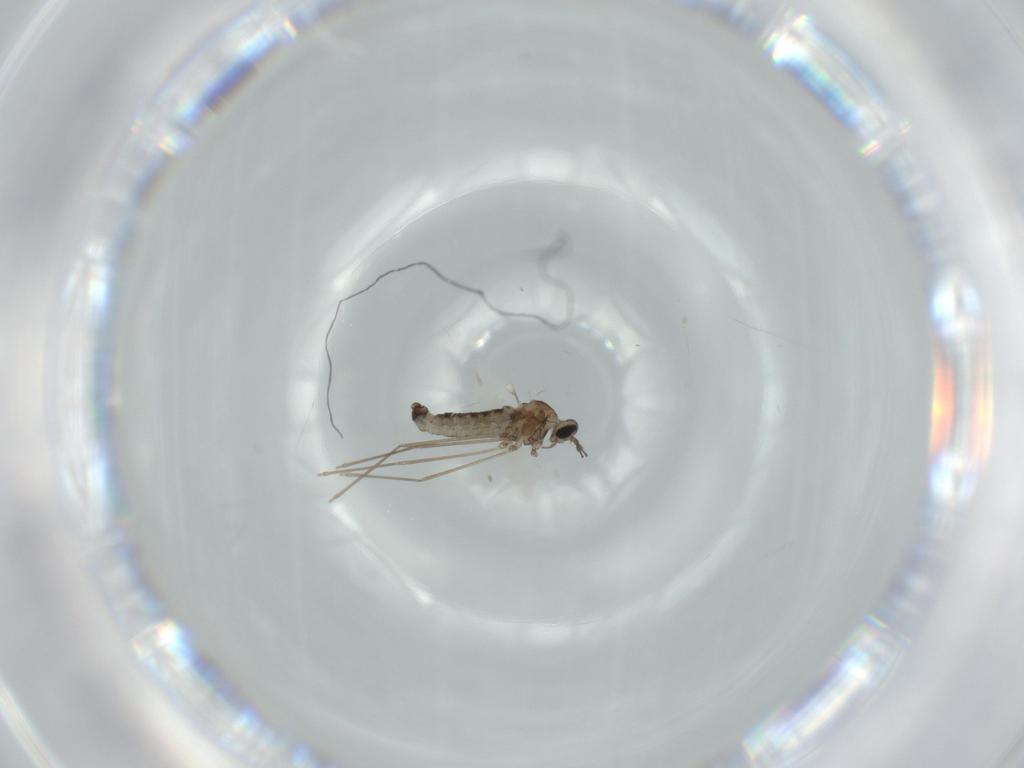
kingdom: Animalia
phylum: Arthropoda
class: Insecta
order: Diptera
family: Cecidomyiidae
